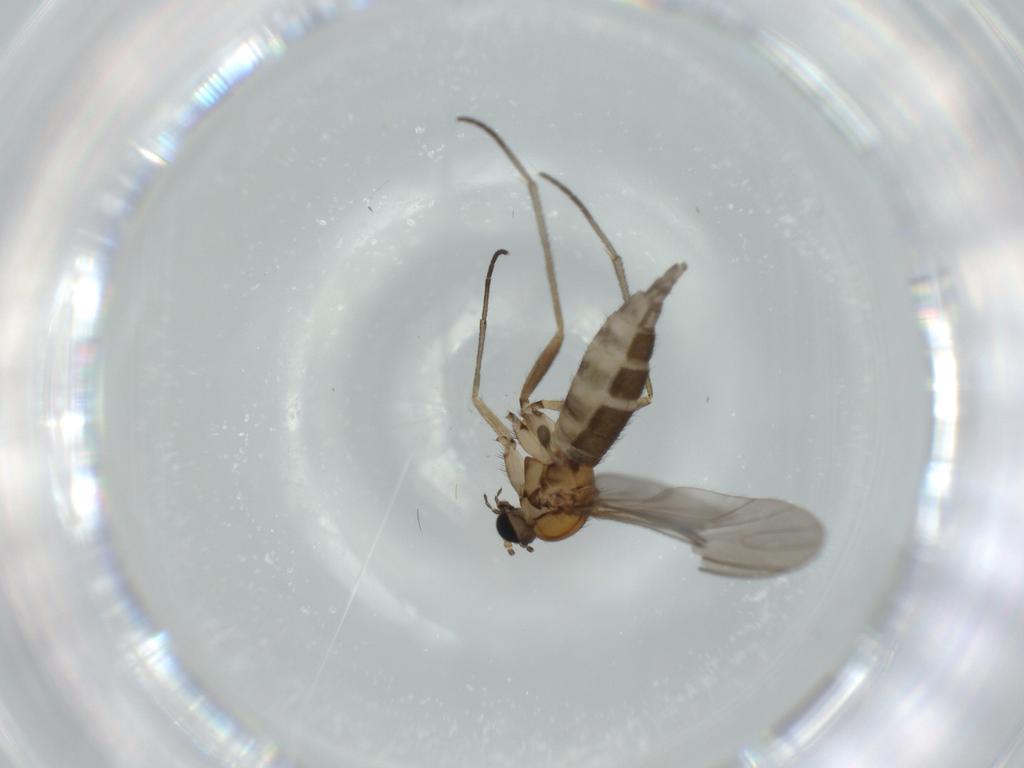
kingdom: Animalia
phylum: Arthropoda
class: Insecta
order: Diptera
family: Sciaridae
